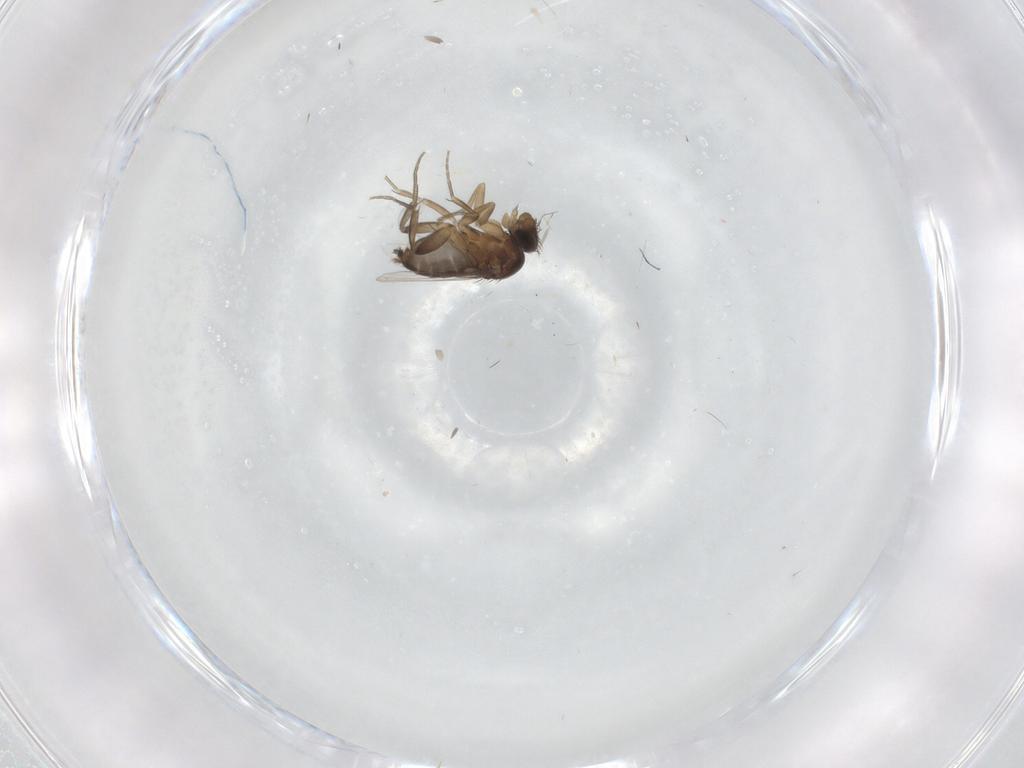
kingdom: Animalia
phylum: Arthropoda
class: Insecta
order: Diptera
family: Phoridae
